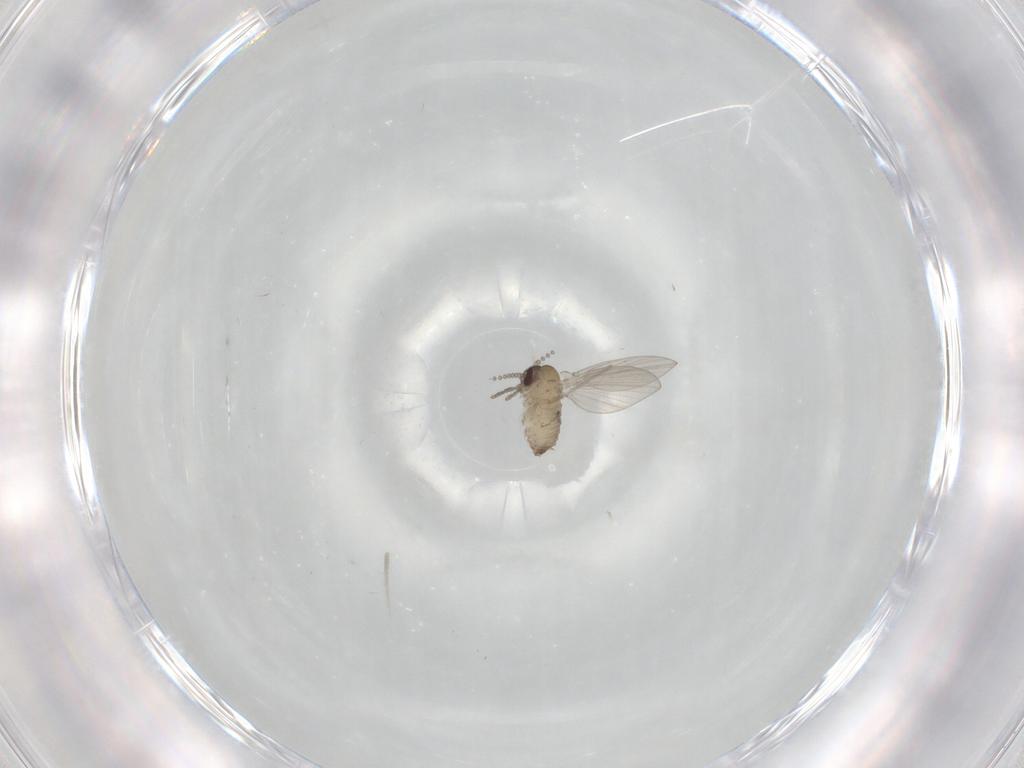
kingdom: Animalia
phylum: Arthropoda
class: Insecta
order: Diptera
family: Psychodidae
